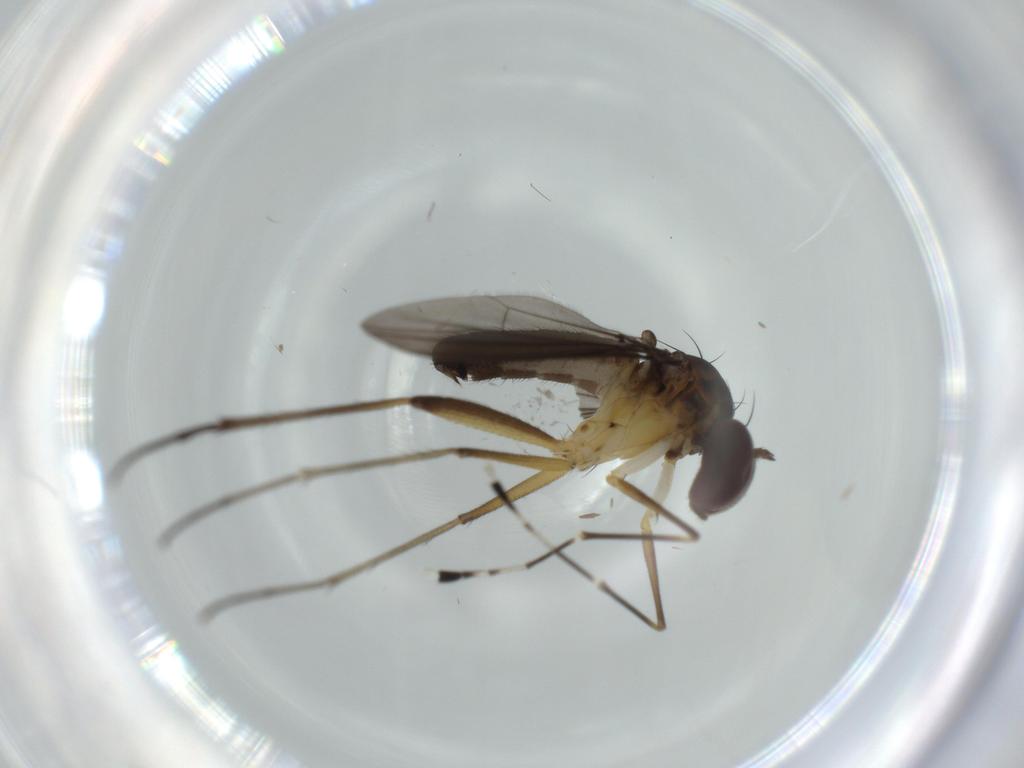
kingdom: Animalia
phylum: Arthropoda
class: Insecta
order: Diptera
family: Dolichopodidae
